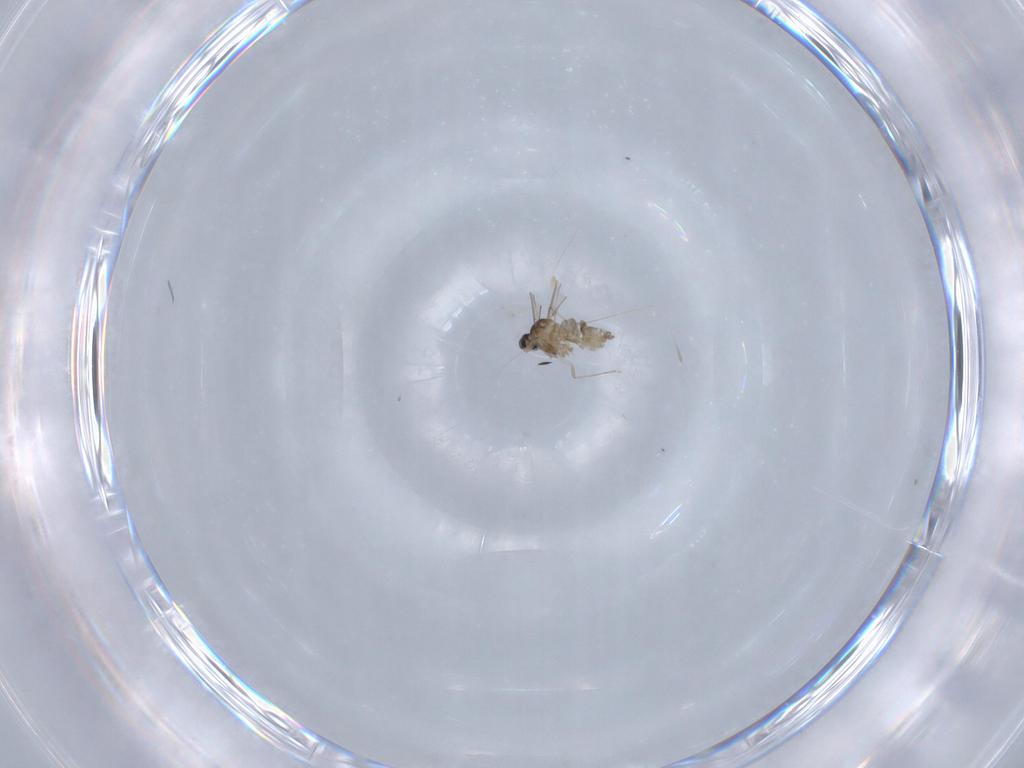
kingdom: Animalia
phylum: Arthropoda
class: Insecta
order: Diptera
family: Cecidomyiidae
